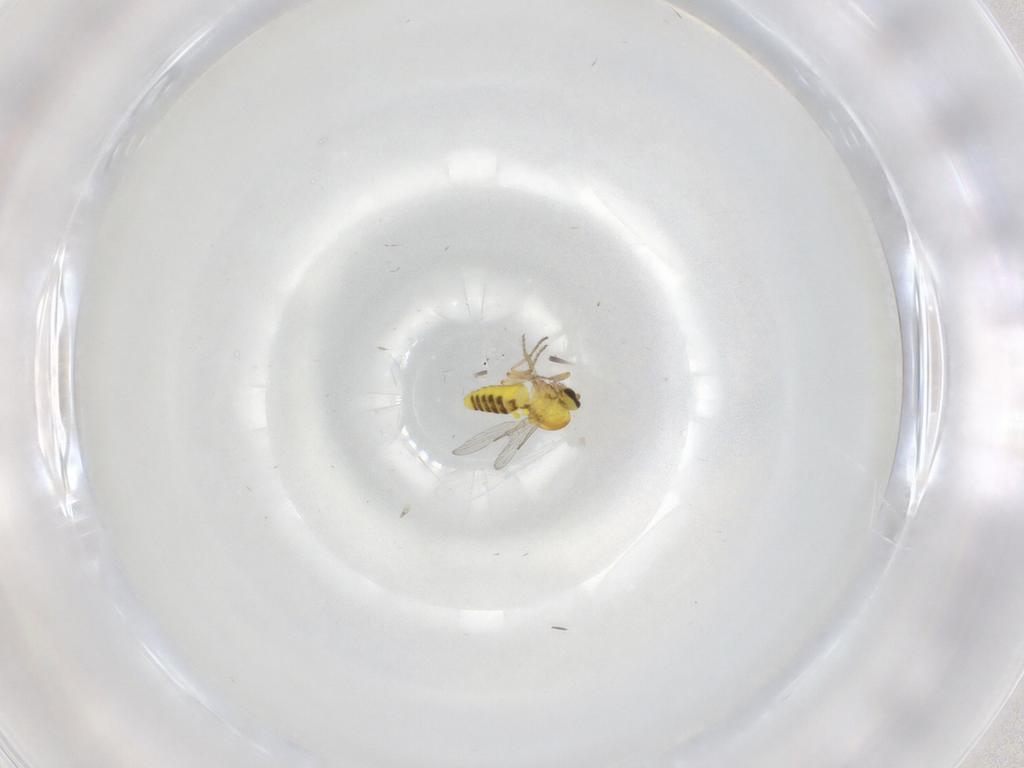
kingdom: Animalia
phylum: Arthropoda
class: Insecta
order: Diptera
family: Ceratopogonidae
